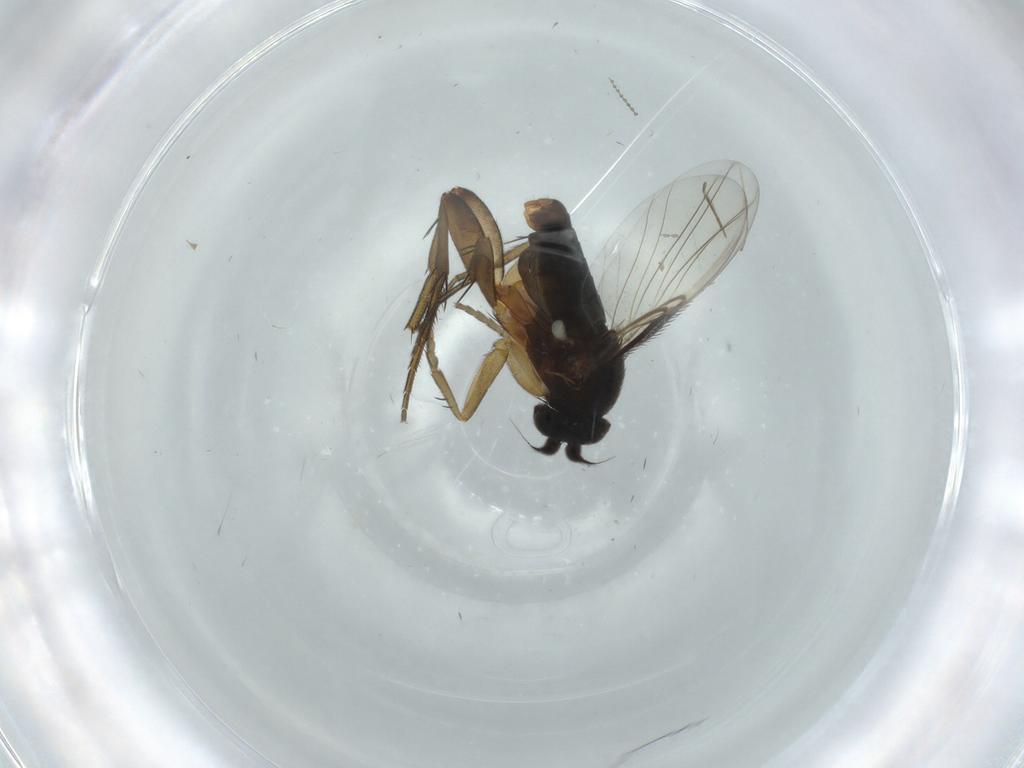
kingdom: Animalia
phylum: Arthropoda
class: Insecta
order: Diptera
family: Phoridae
